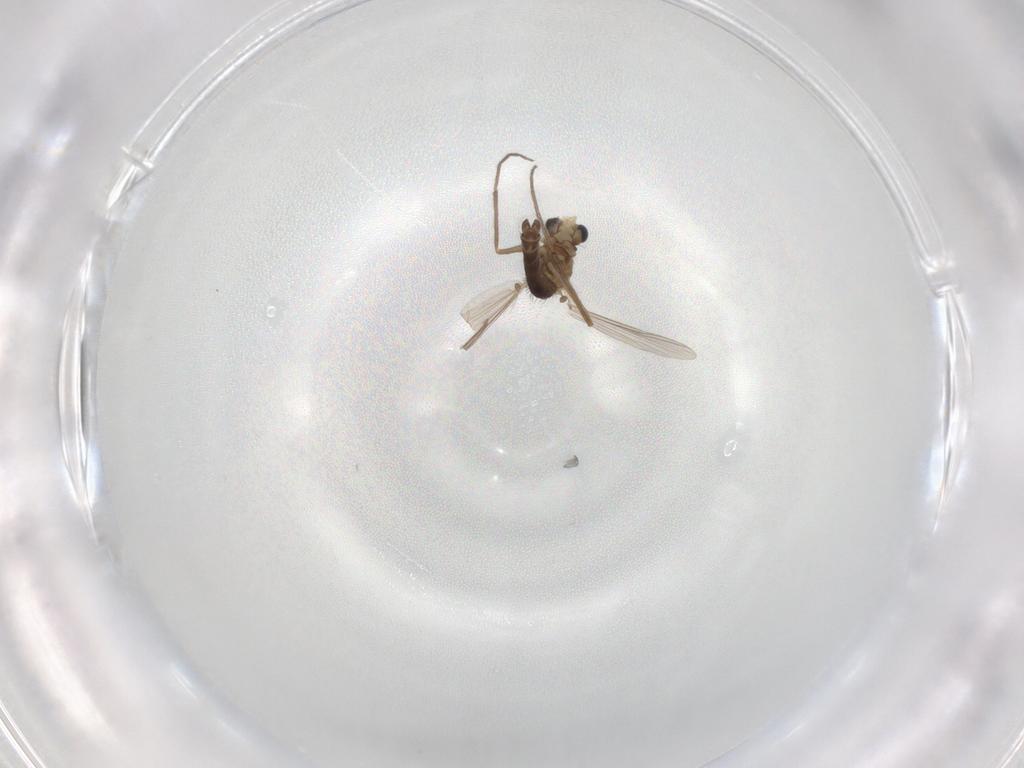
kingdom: Animalia
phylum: Arthropoda
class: Insecta
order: Diptera
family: Chironomidae
